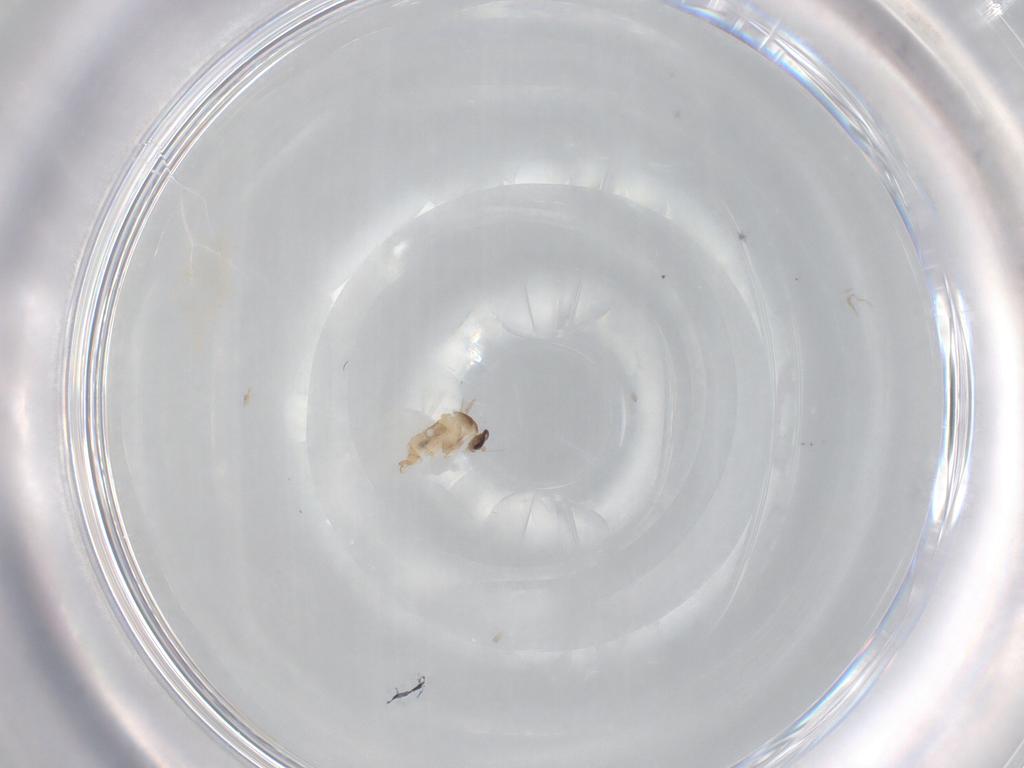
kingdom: Animalia
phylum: Arthropoda
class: Insecta
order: Diptera
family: Cecidomyiidae
